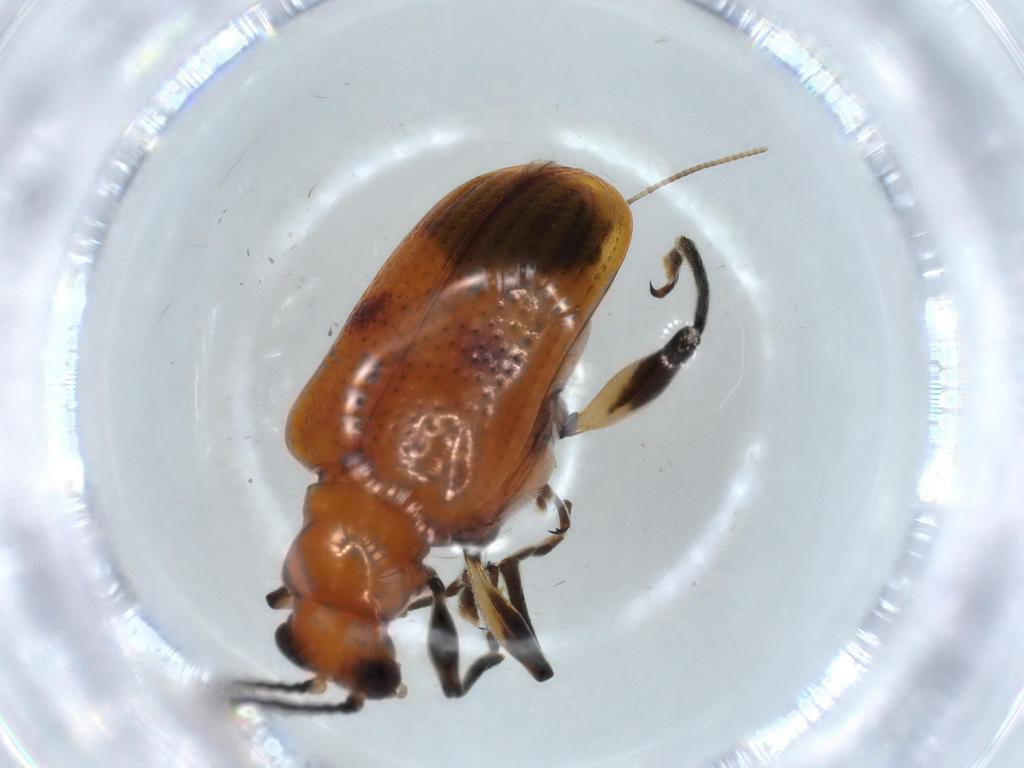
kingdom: Animalia
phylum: Arthropoda
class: Insecta
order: Coleoptera
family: Chrysomelidae
